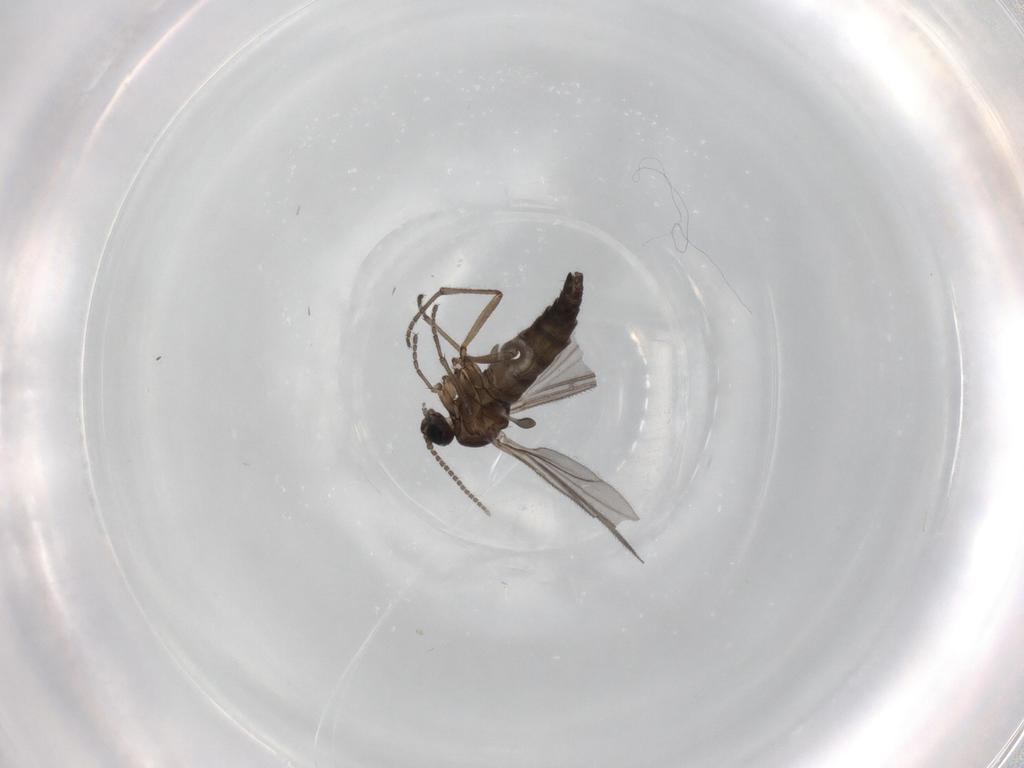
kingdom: Animalia
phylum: Arthropoda
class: Insecta
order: Diptera
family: Sciaridae
